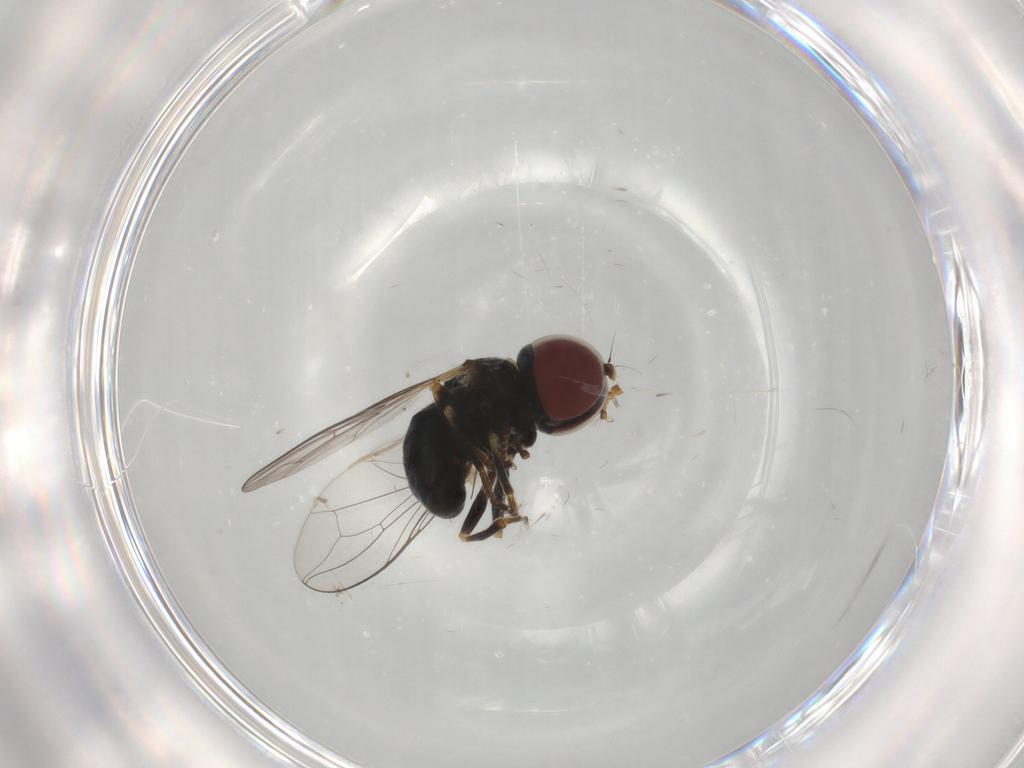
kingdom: Animalia
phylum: Arthropoda
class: Insecta
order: Diptera
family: Pipunculidae
